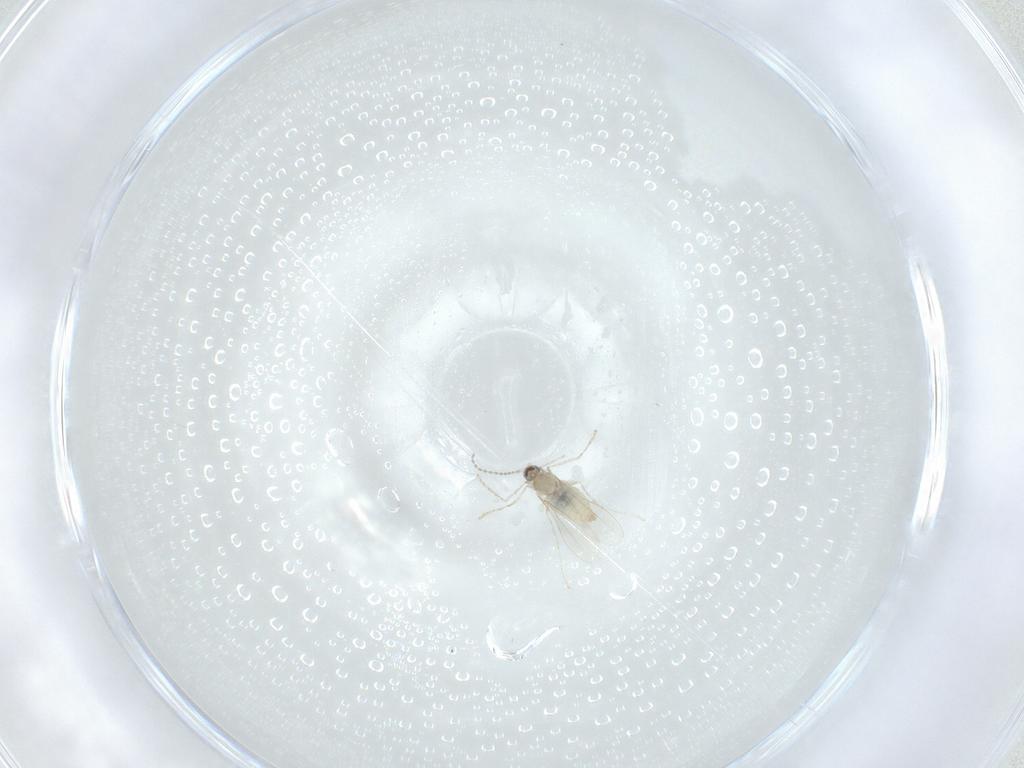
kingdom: Animalia
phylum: Arthropoda
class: Insecta
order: Diptera
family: Cecidomyiidae
